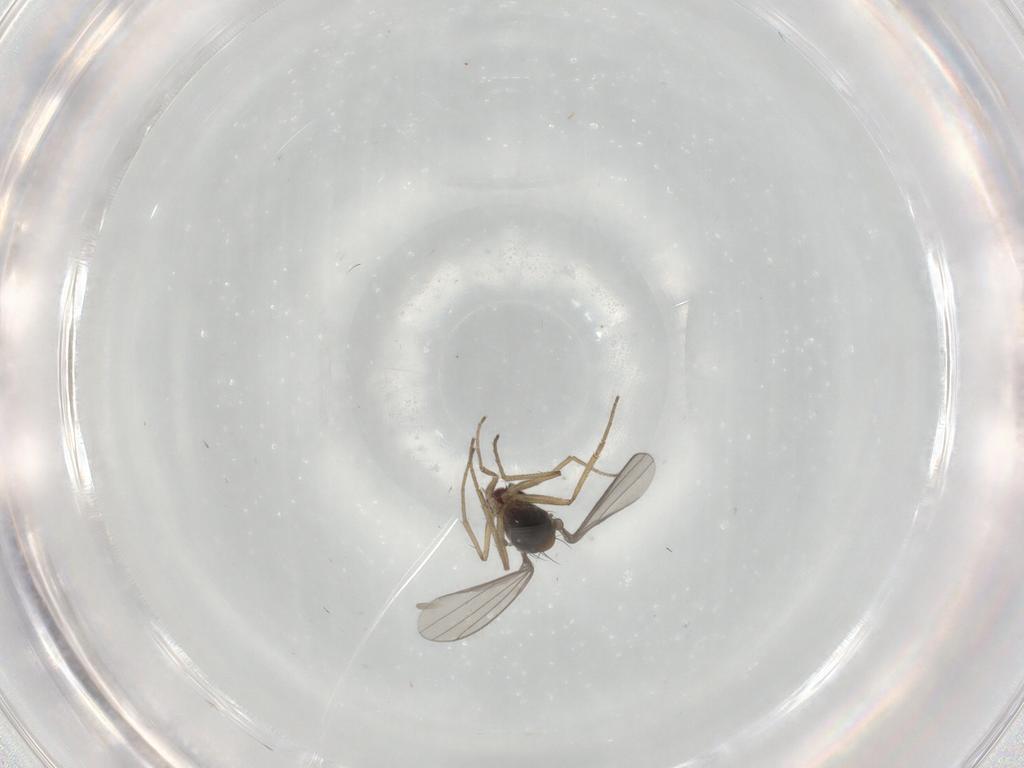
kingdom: Animalia
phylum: Arthropoda
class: Insecta
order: Diptera
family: Dolichopodidae
